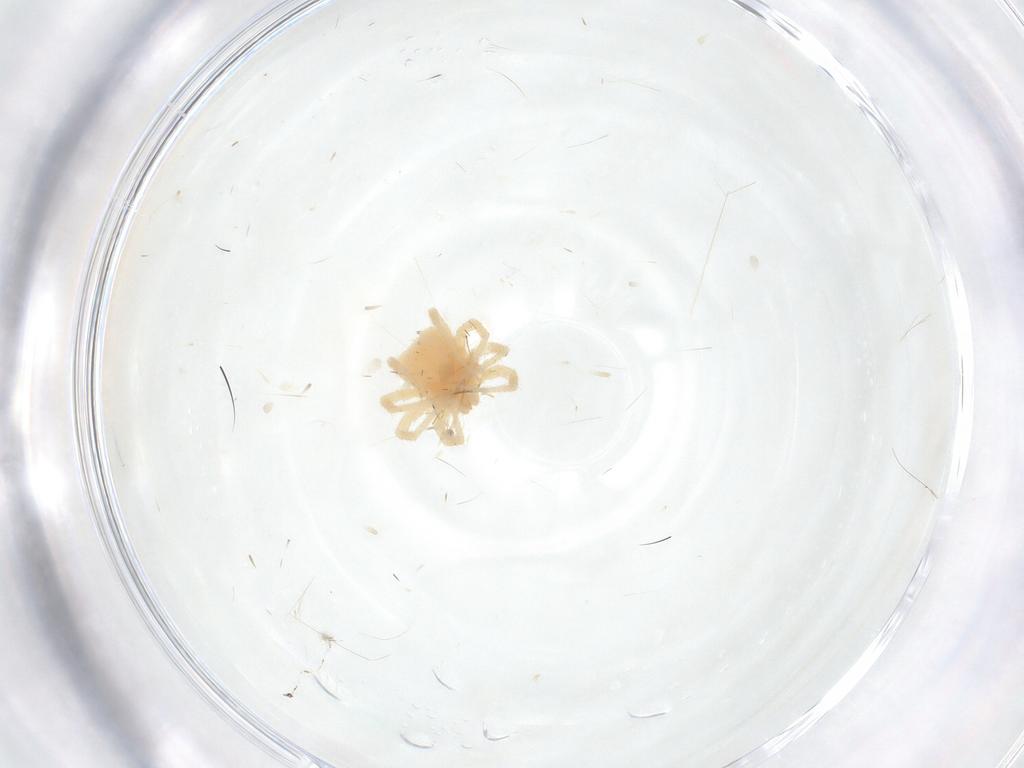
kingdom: Animalia
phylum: Arthropoda
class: Arachnida
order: Trombidiformes
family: Anystidae
